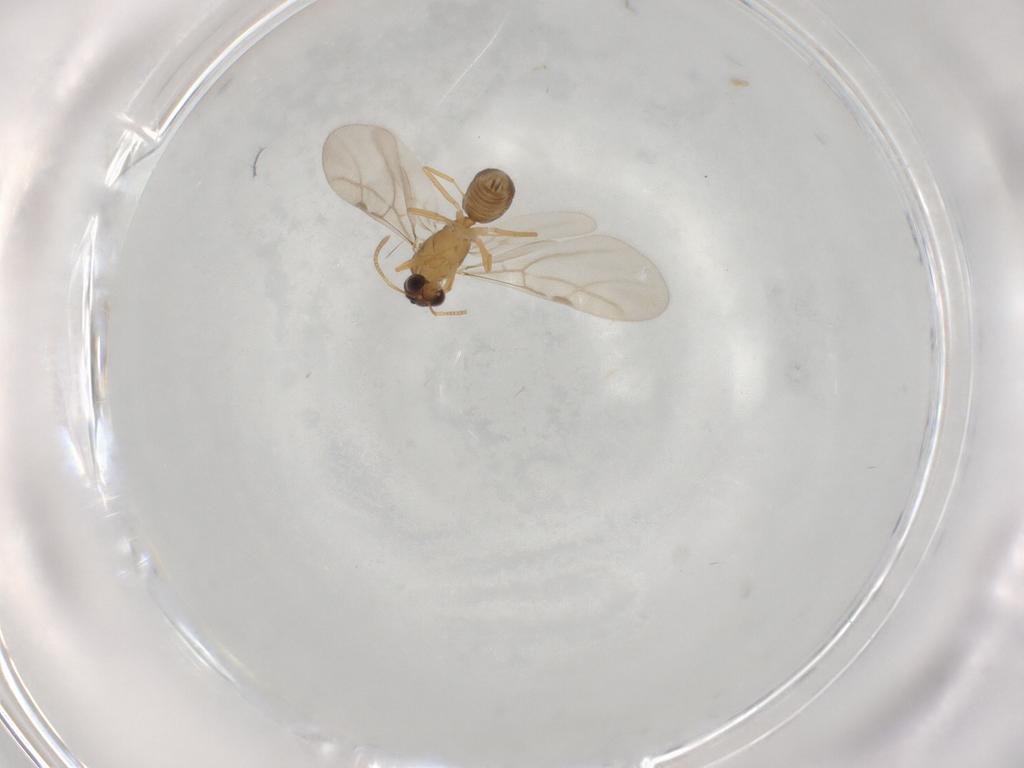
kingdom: Animalia
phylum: Arthropoda
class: Insecta
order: Hymenoptera
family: Formicidae
